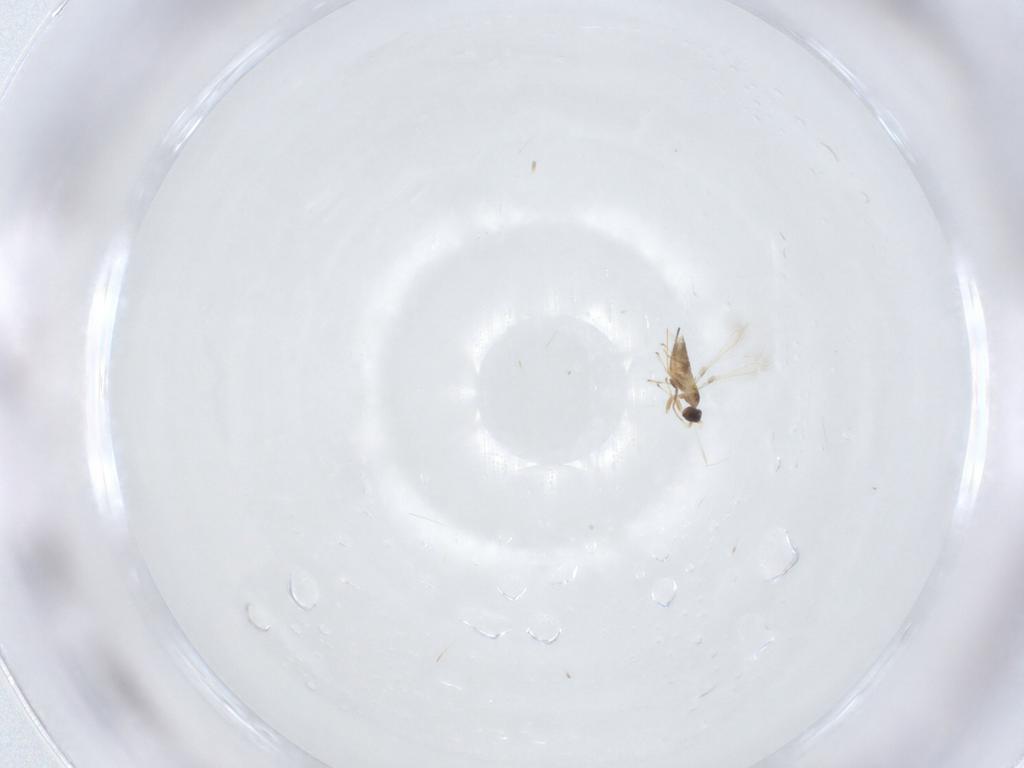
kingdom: Animalia
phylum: Arthropoda
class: Insecta
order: Hymenoptera
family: Mymaridae
